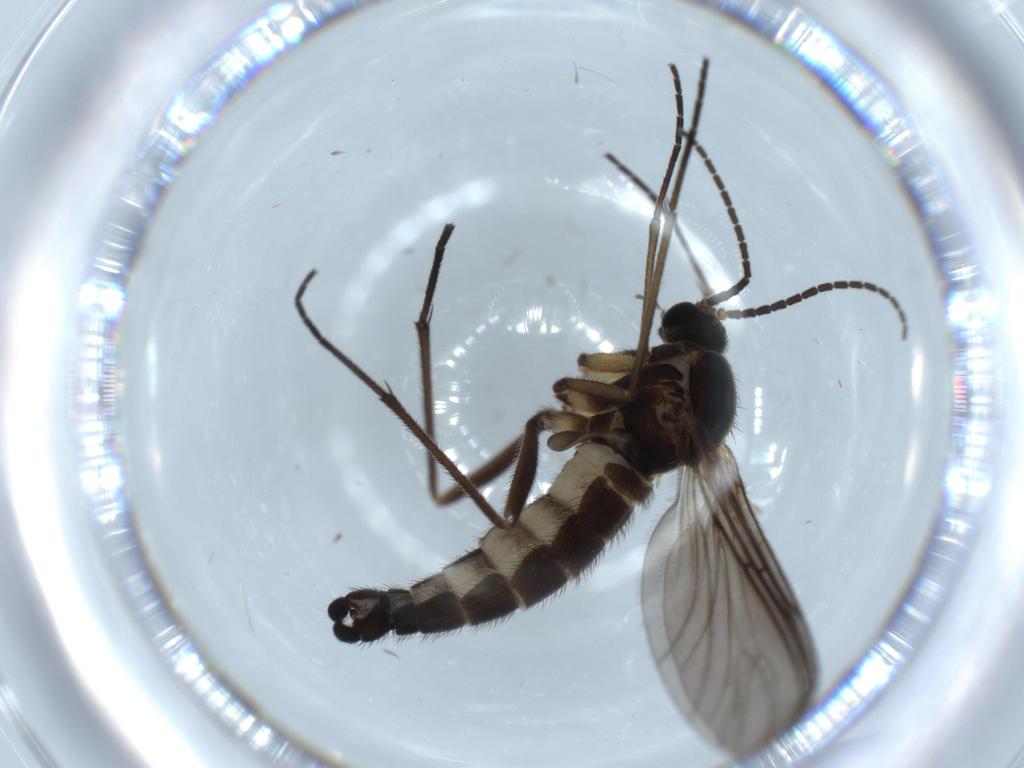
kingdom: Animalia
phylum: Arthropoda
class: Insecta
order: Diptera
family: Sciaridae
